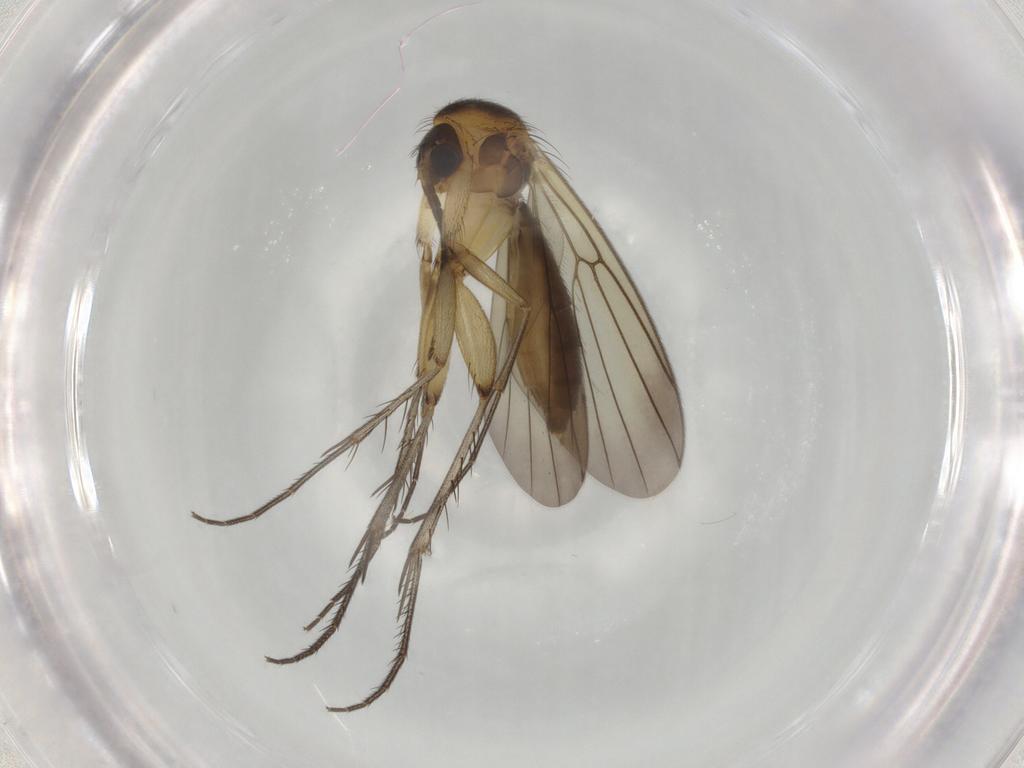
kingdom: Animalia
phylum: Arthropoda
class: Insecta
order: Diptera
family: Phoridae
